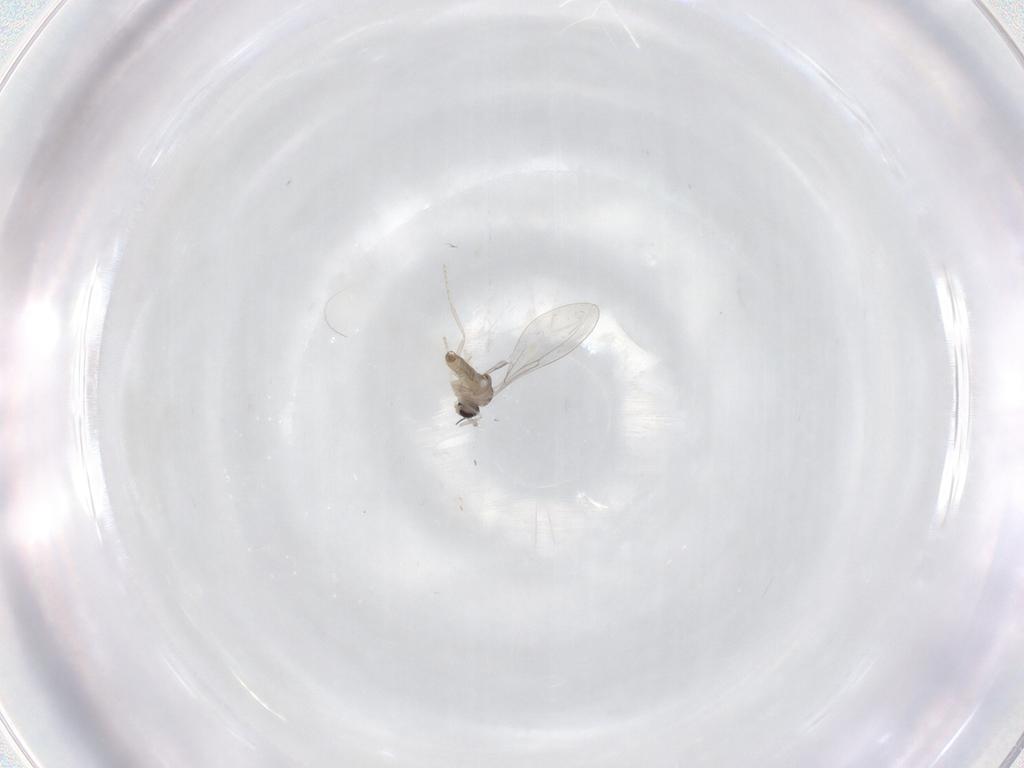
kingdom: Animalia
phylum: Arthropoda
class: Insecta
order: Diptera
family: Cecidomyiidae
